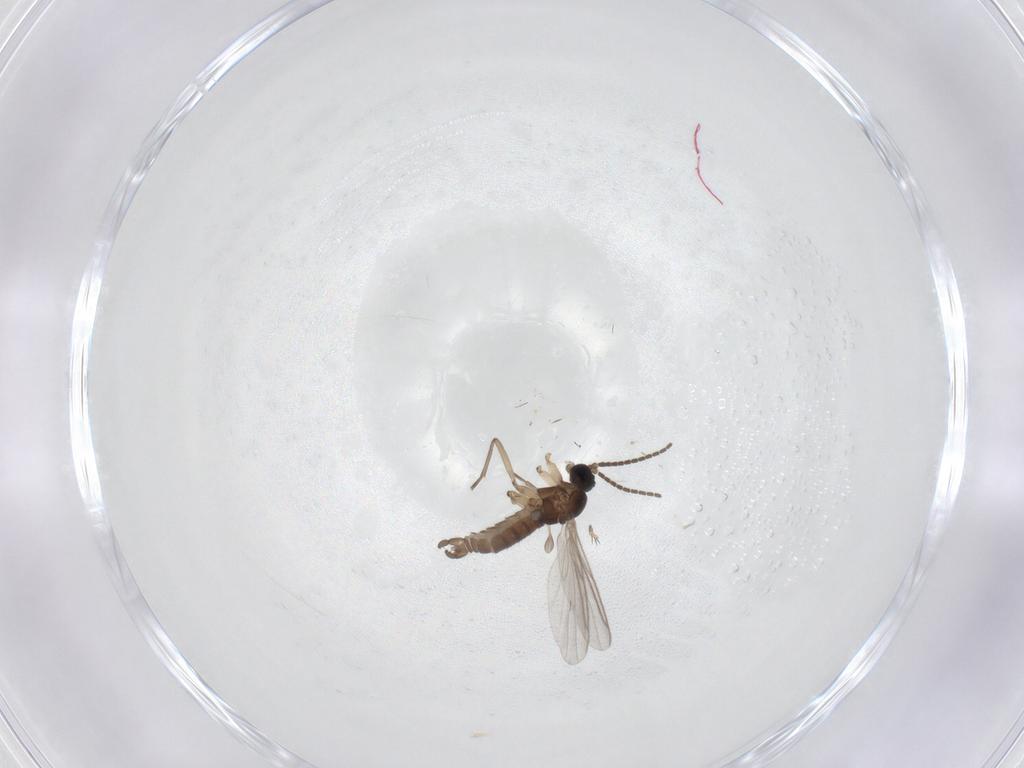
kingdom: Animalia
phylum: Arthropoda
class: Insecta
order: Diptera
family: Sciaridae
